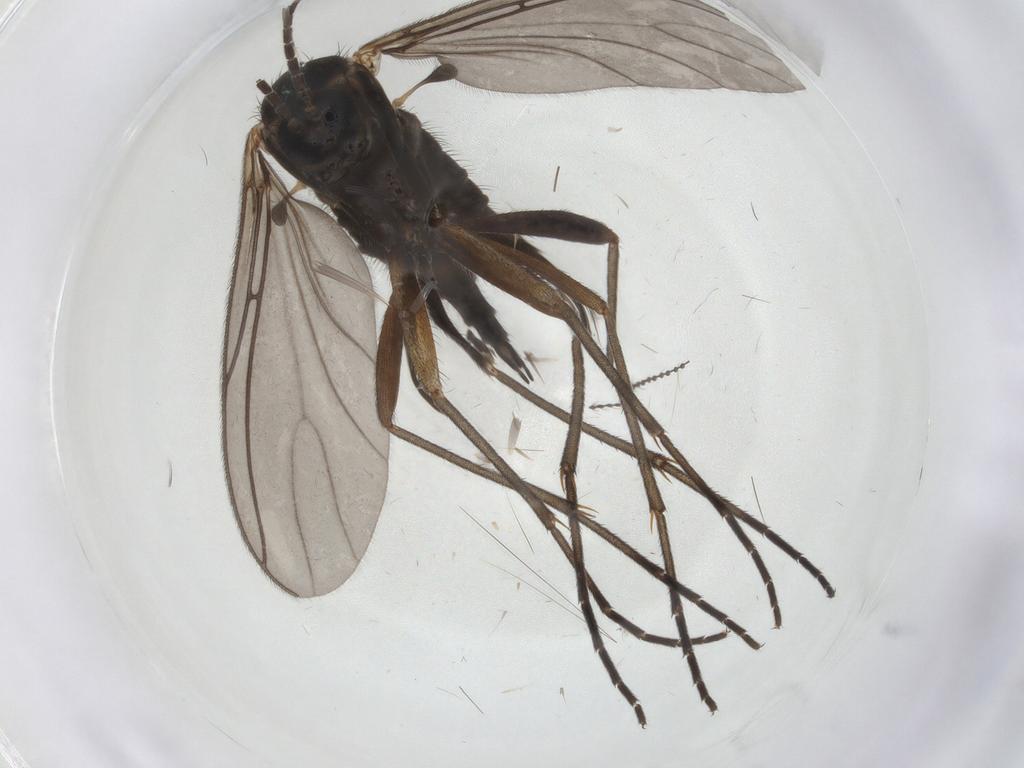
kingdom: Animalia
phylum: Arthropoda
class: Insecta
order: Diptera
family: Sciaridae
